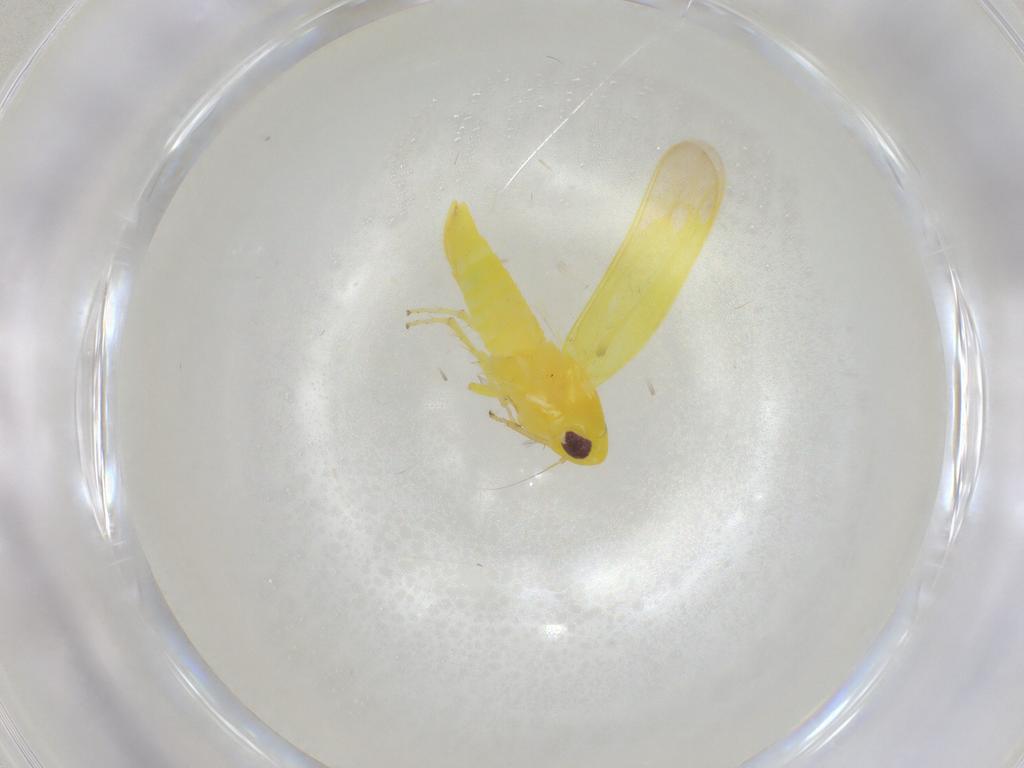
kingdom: Animalia
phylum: Arthropoda
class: Insecta
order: Hemiptera
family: Cicadellidae
